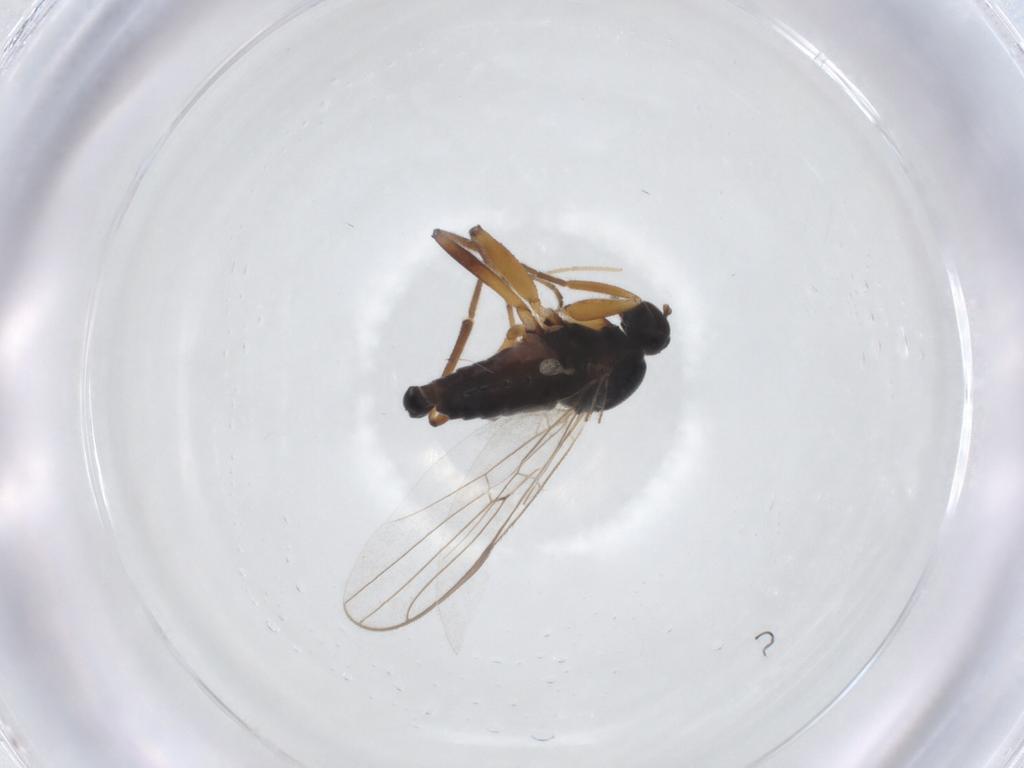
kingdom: Animalia
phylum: Arthropoda
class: Insecta
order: Diptera
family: Hybotidae
